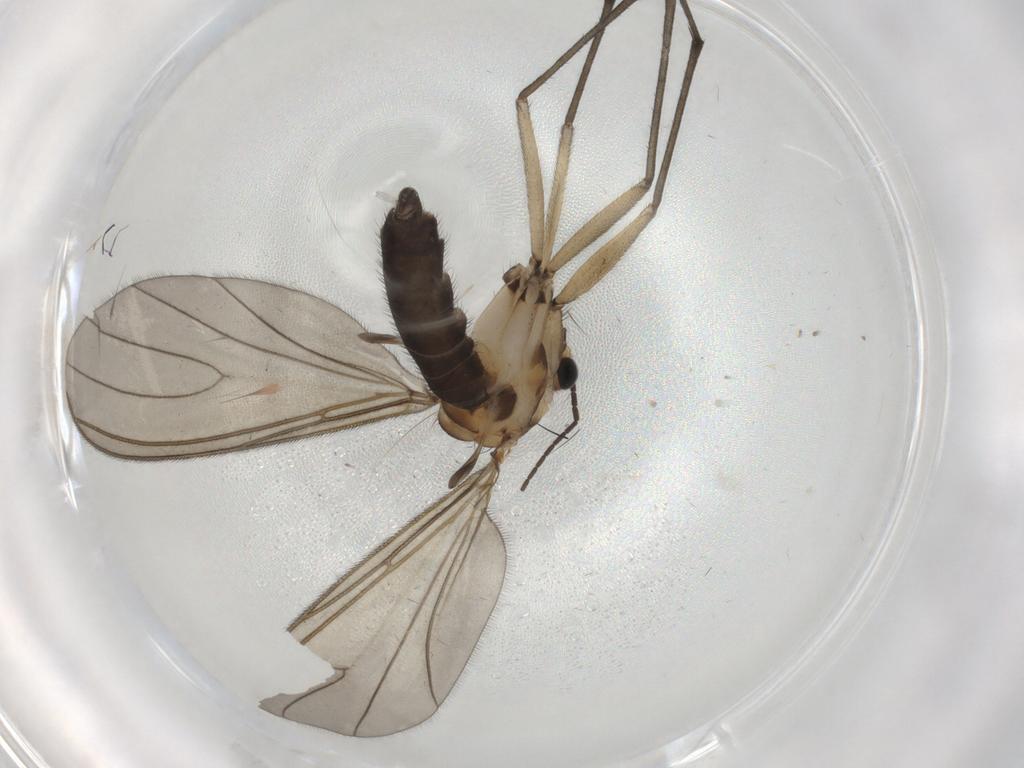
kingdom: Animalia
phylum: Arthropoda
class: Insecta
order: Diptera
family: Sciaridae
